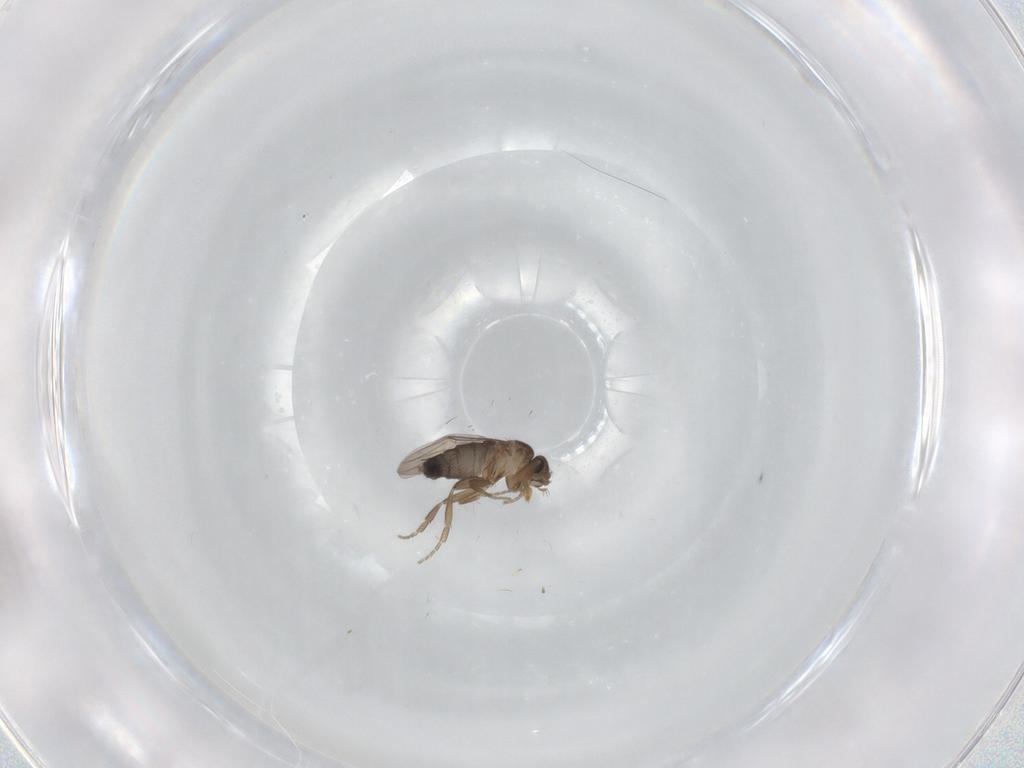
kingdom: Animalia
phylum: Arthropoda
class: Insecta
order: Diptera
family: Phoridae
